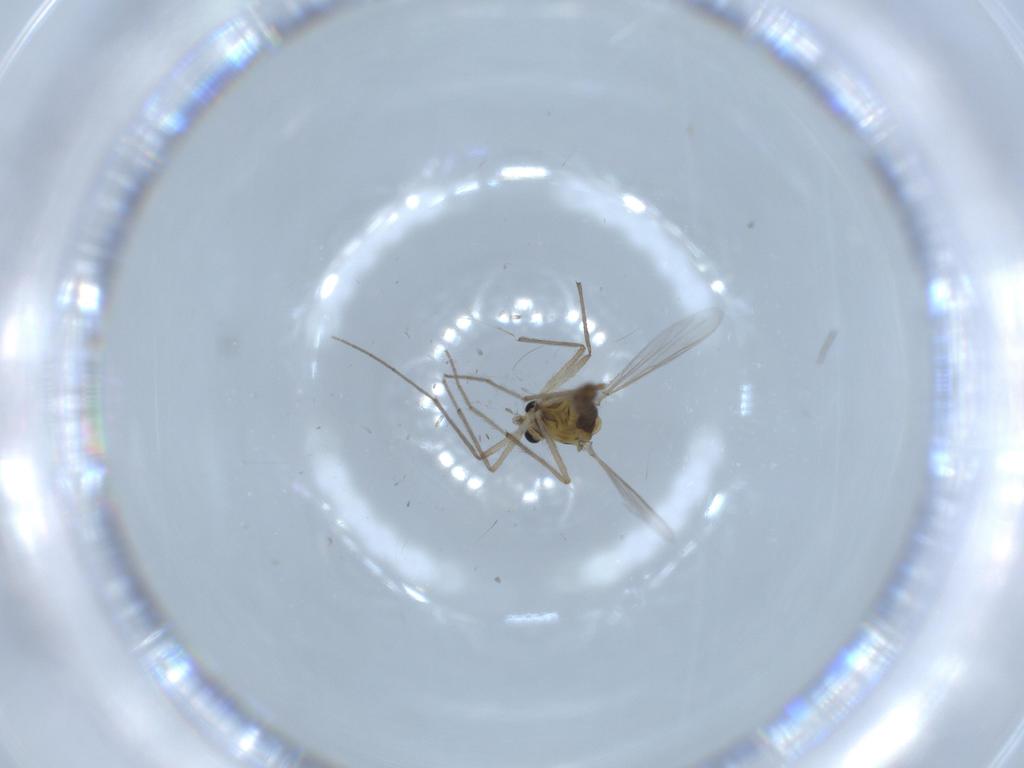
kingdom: Animalia
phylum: Arthropoda
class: Insecta
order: Diptera
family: Chironomidae
